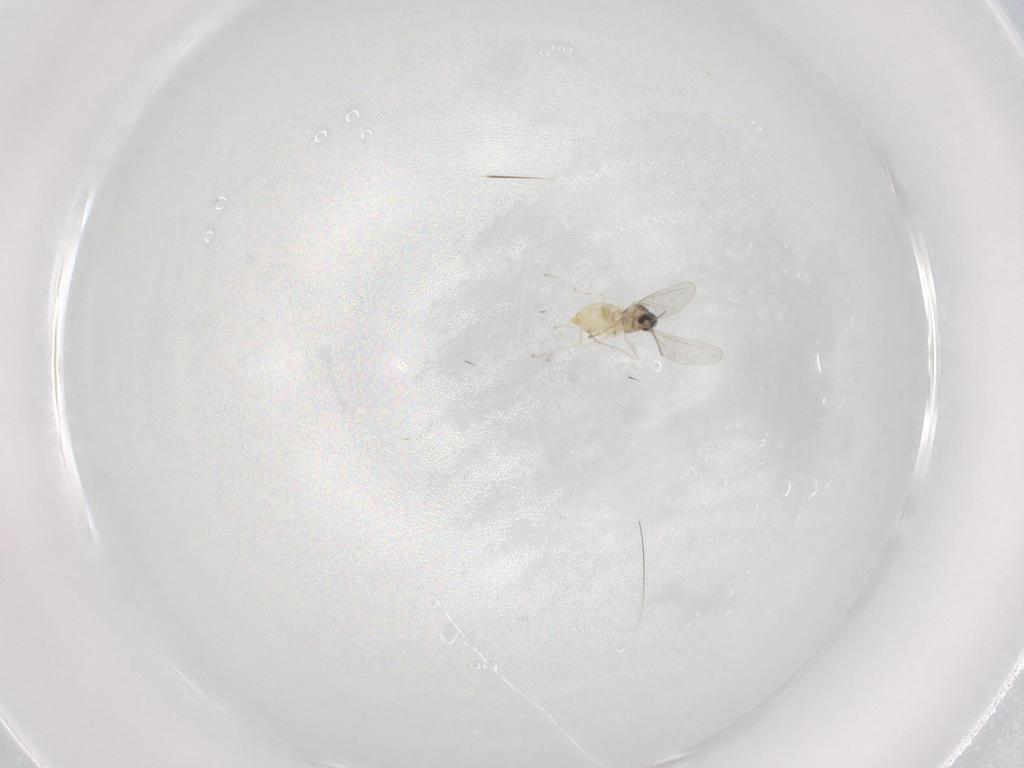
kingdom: Animalia
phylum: Arthropoda
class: Insecta
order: Diptera
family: Cecidomyiidae
